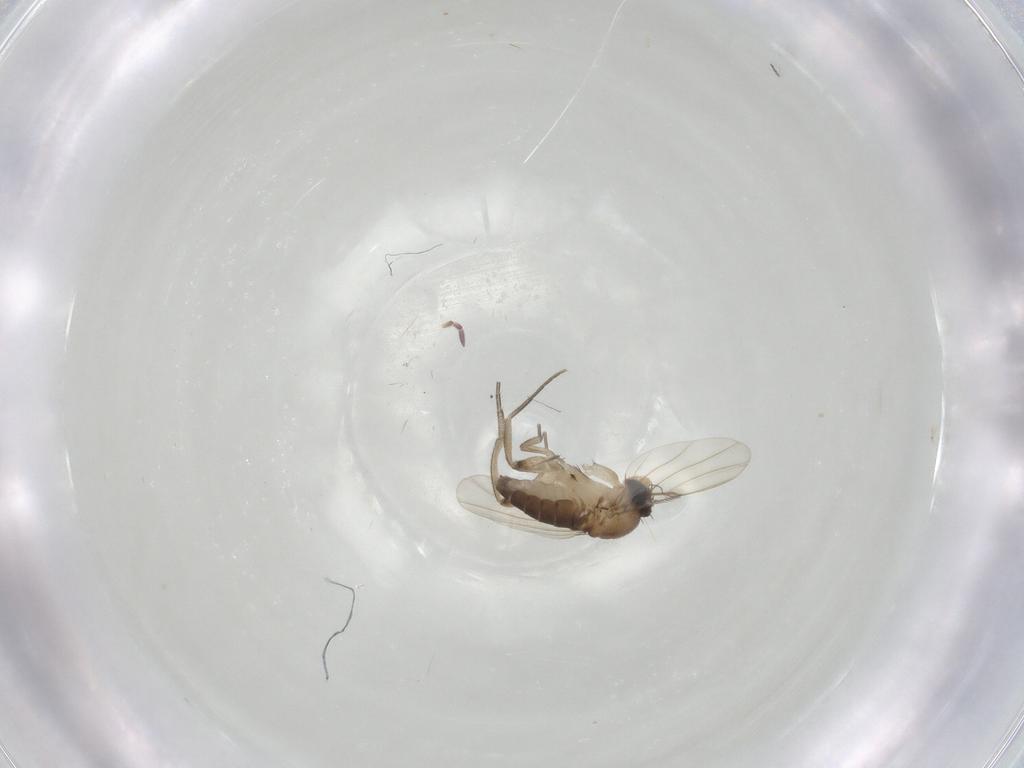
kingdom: Animalia
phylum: Arthropoda
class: Insecta
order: Diptera
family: Phoridae
